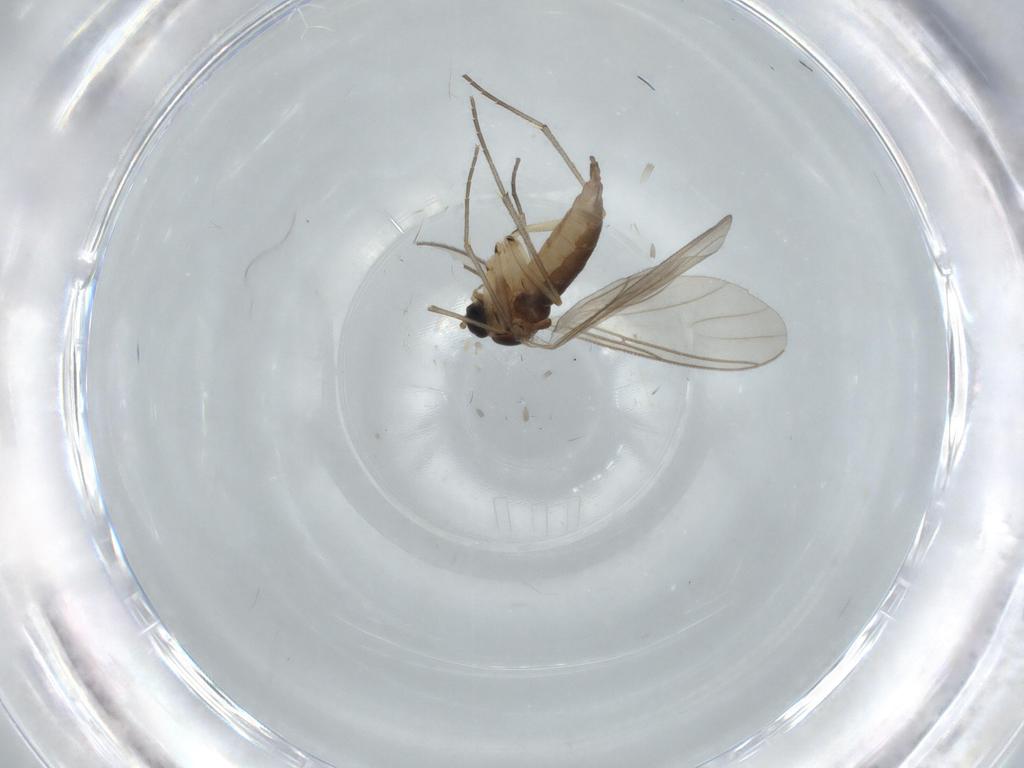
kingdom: Animalia
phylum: Arthropoda
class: Insecta
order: Diptera
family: Sciaridae
